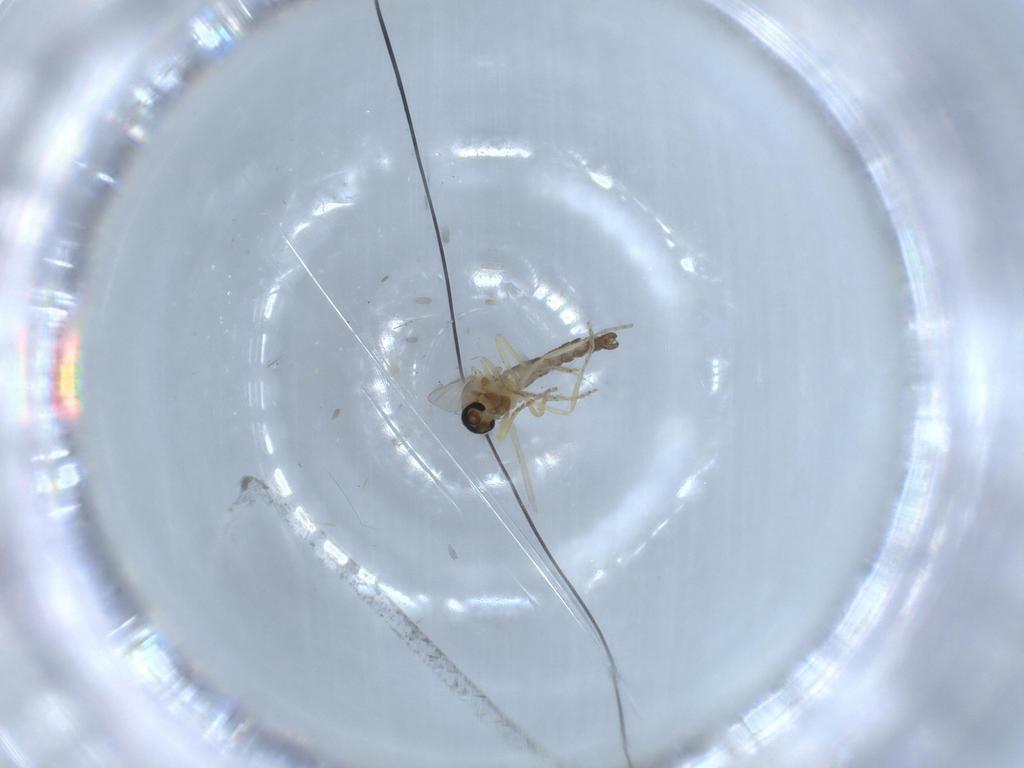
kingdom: Animalia
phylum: Arthropoda
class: Insecta
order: Diptera
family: Ceratopogonidae
